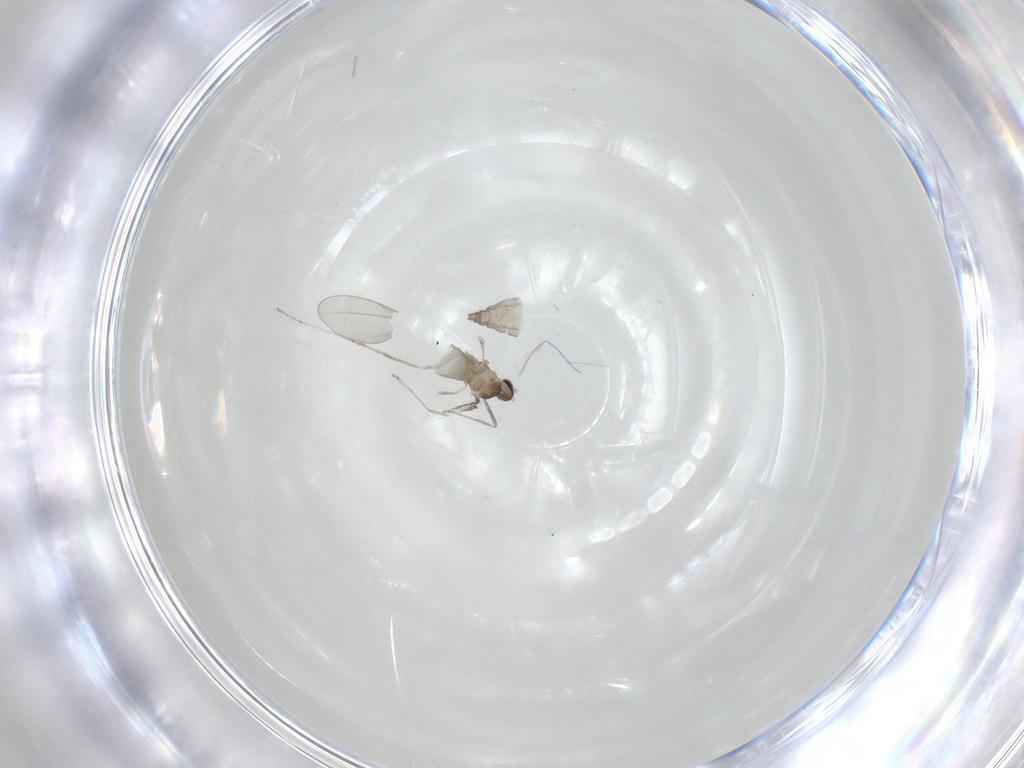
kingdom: Animalia
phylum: Arthropoda
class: Insecta
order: Diptera
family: Cecidomyiidae
